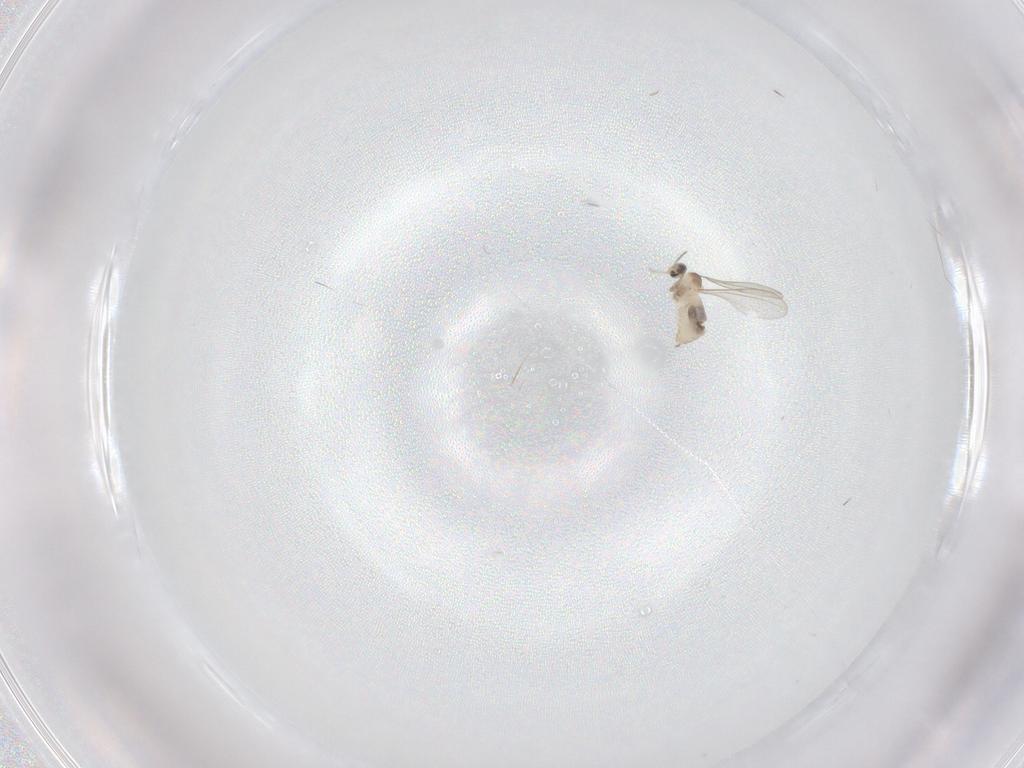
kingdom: Animalia
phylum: Arthropoda
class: Insecta
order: Diptera
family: Cecidomyiidae
